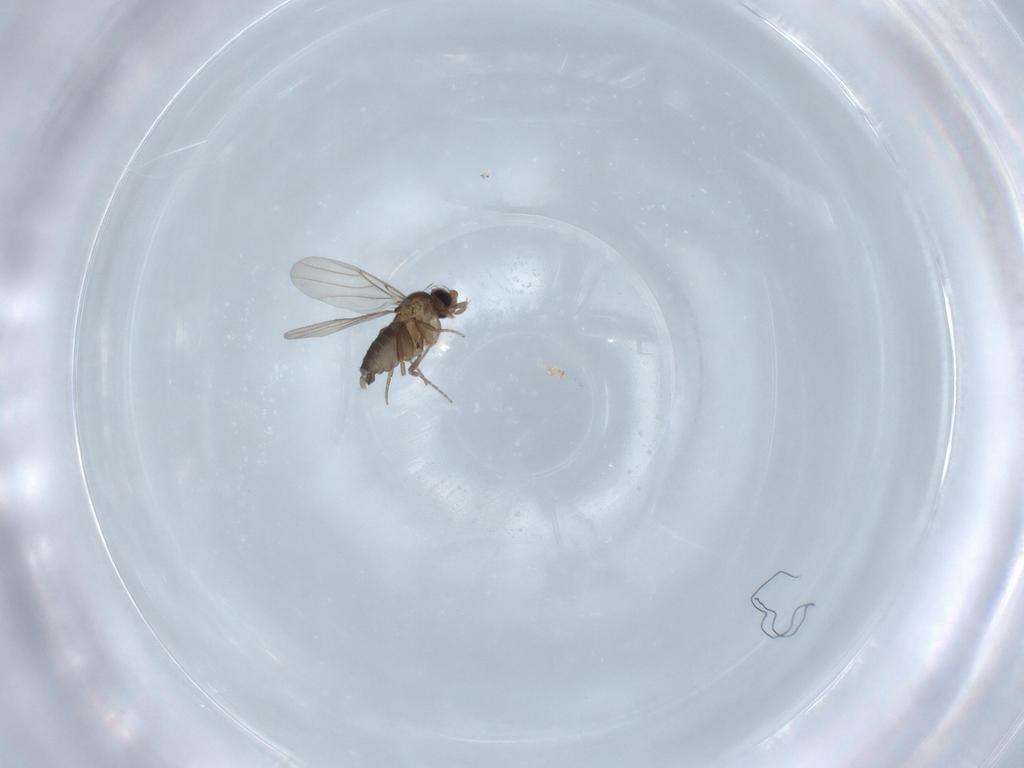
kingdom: Animalia
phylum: Arthropoda
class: Insecta
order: Diptera
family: Phoridae
